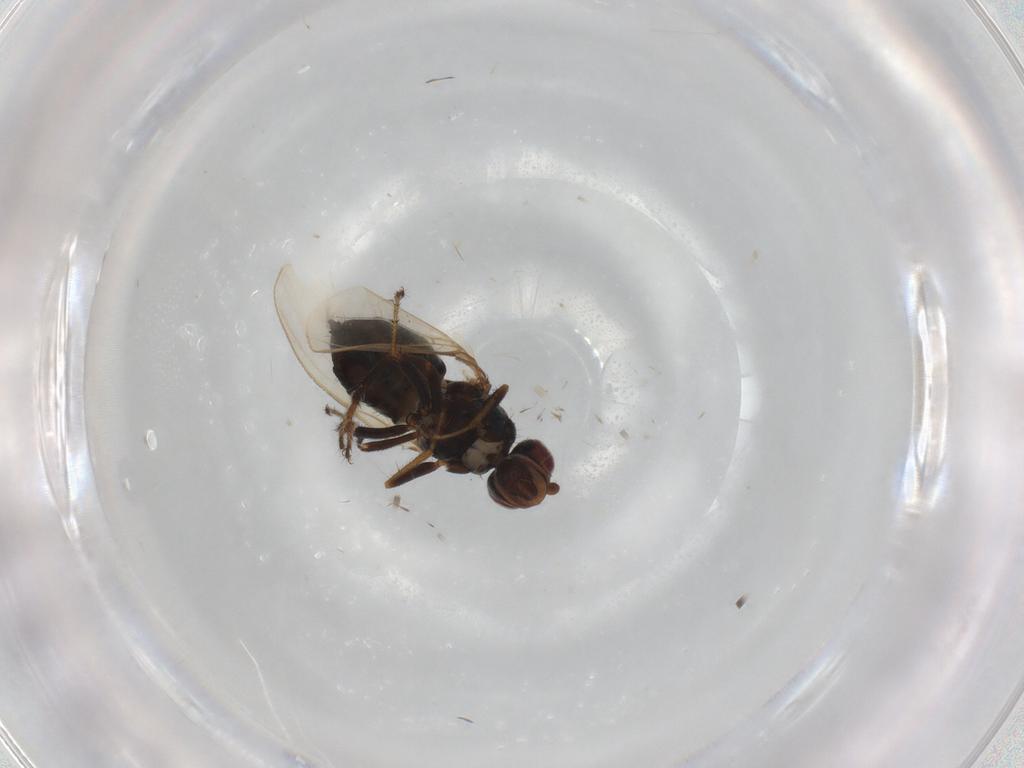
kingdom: Animalia
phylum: Arthropoda
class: Insecta
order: Diptera
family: Sphaeroceridae
